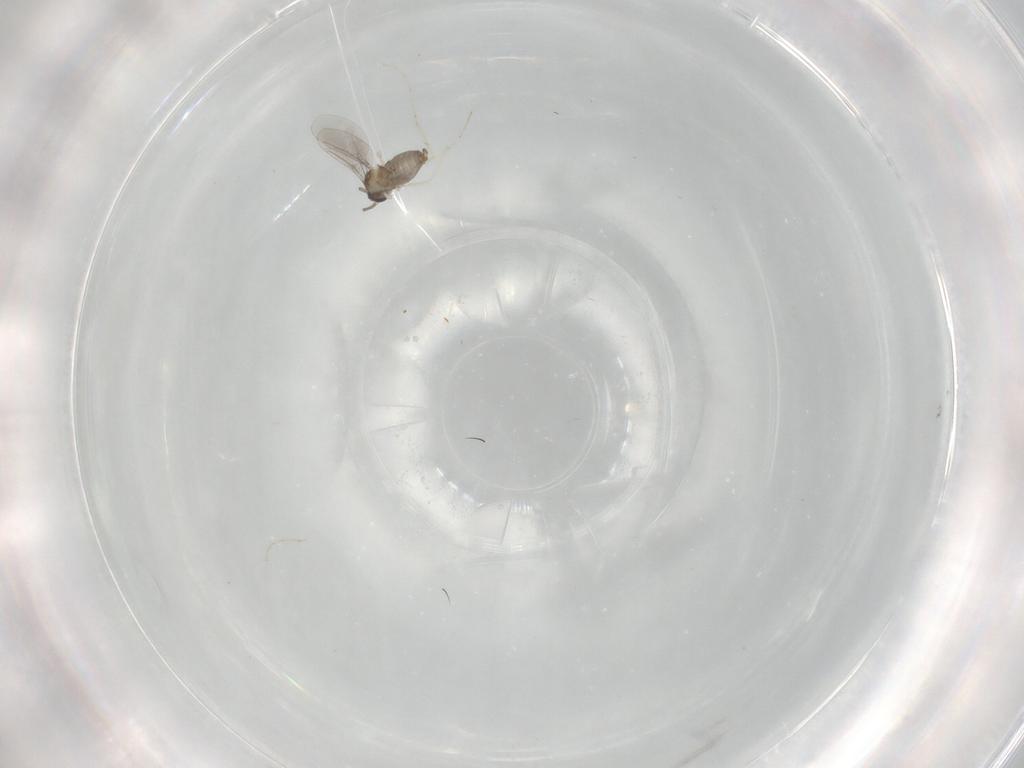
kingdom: Animalia
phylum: Arthropoda
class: Insecta
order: Diptera
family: Cecidomyiidae
